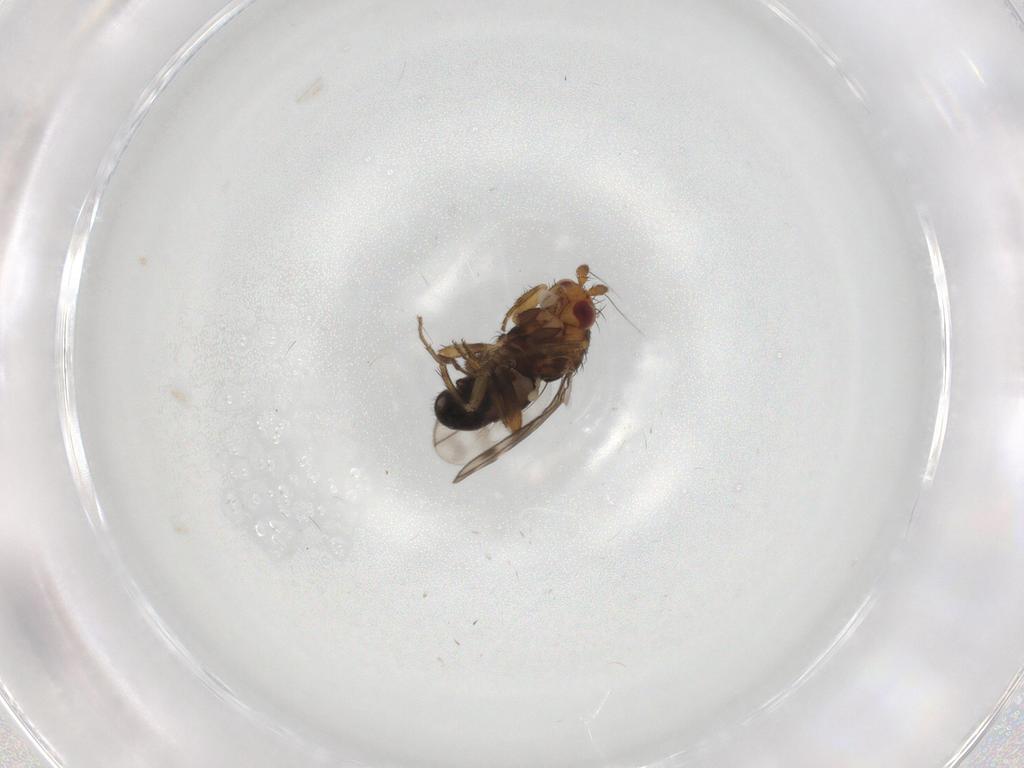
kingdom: Animalia
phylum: Arthropoda
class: Insecta
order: Diptera
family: Sphaeroceridae
